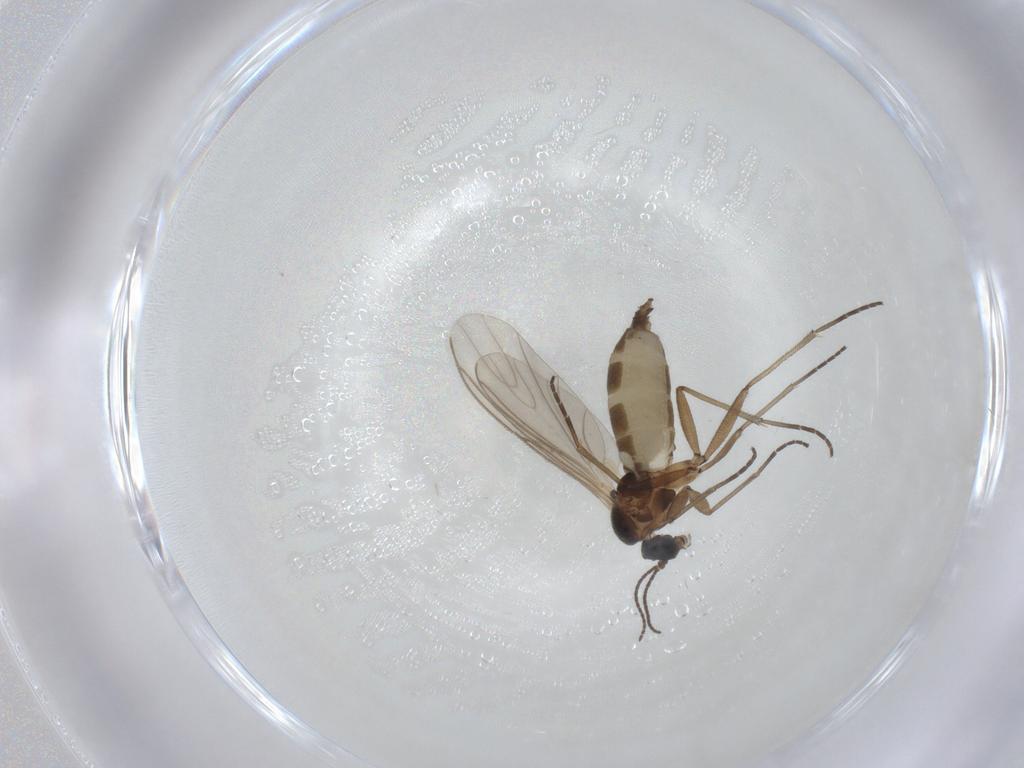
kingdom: Animalia
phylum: Arthropoda
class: Insecta
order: Diptera
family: Limoniidae
